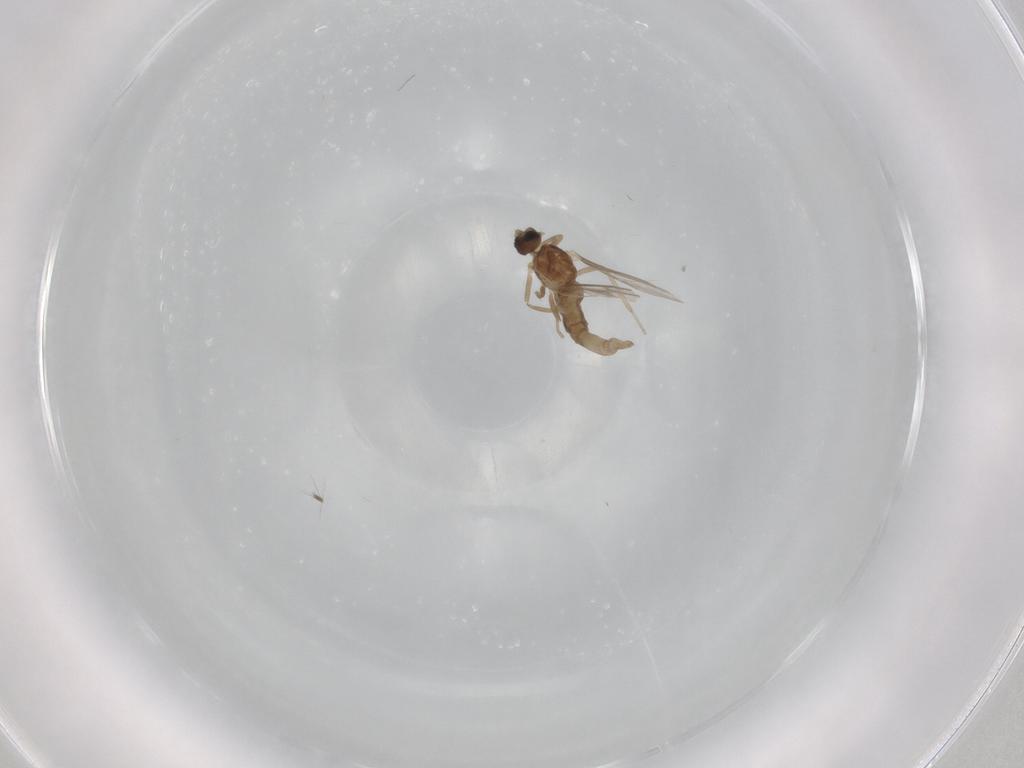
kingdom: Animalia
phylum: Arthropoda
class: Insecta
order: Diptera
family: Cecidomyiidae
